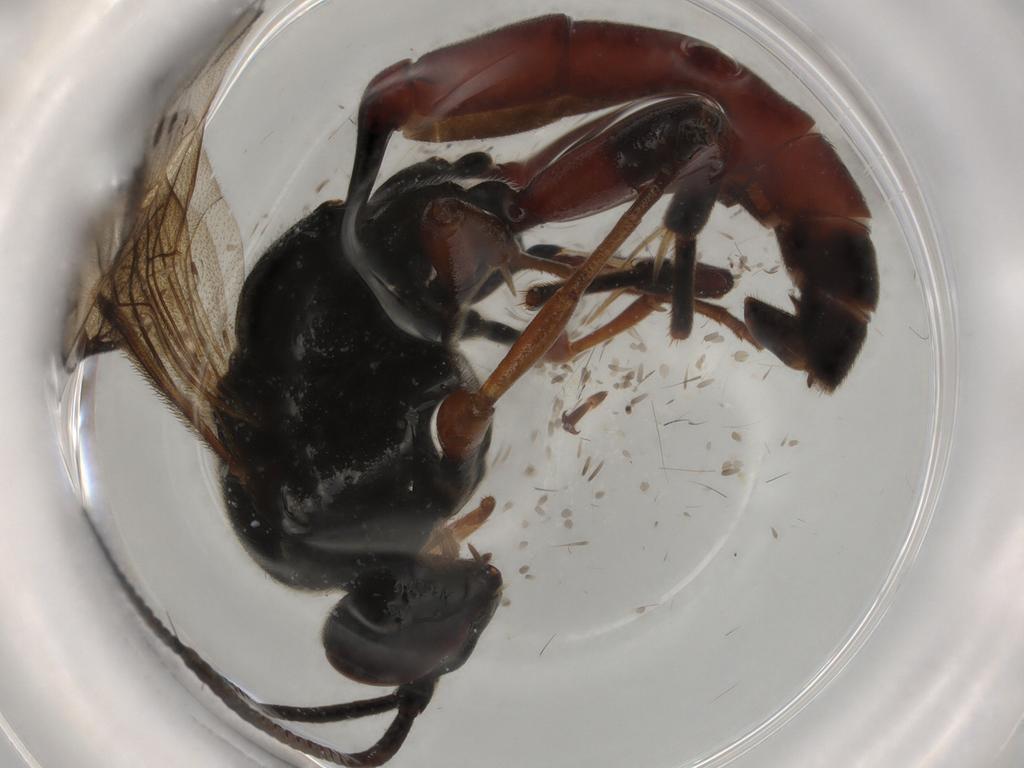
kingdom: Animalia
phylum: Arthropoda
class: Insecta
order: Hymenoptera
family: Ichneumonidae
